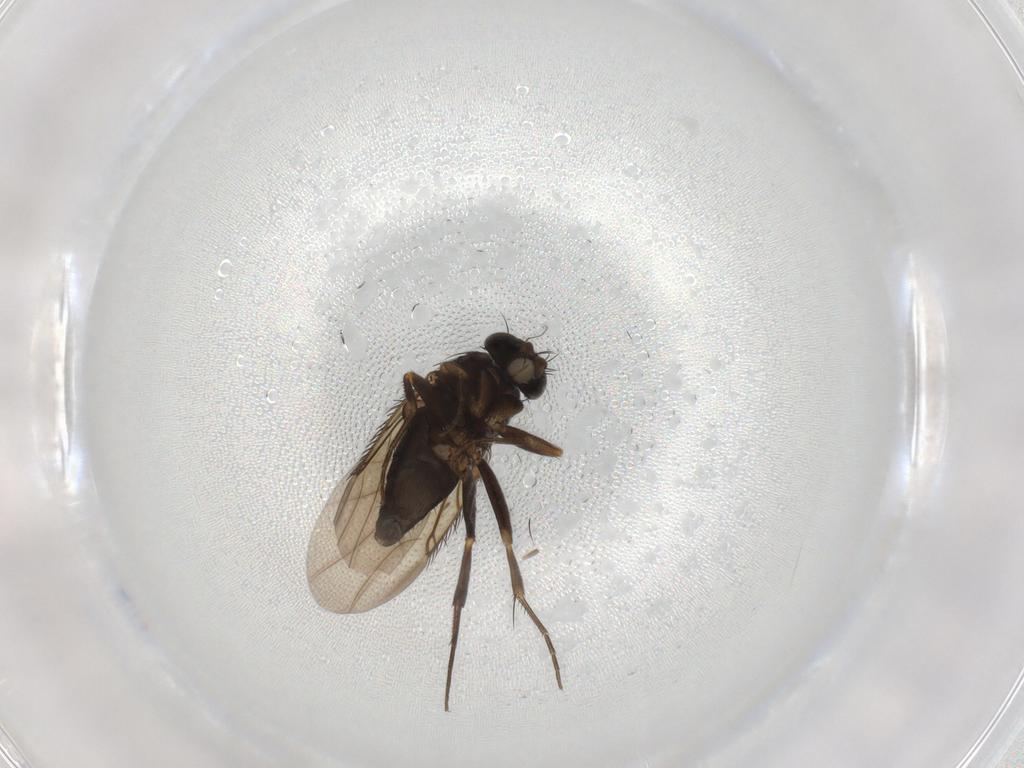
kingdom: Animalia
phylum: Arthropoda
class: Insecta
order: Diptera
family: Phoridae
